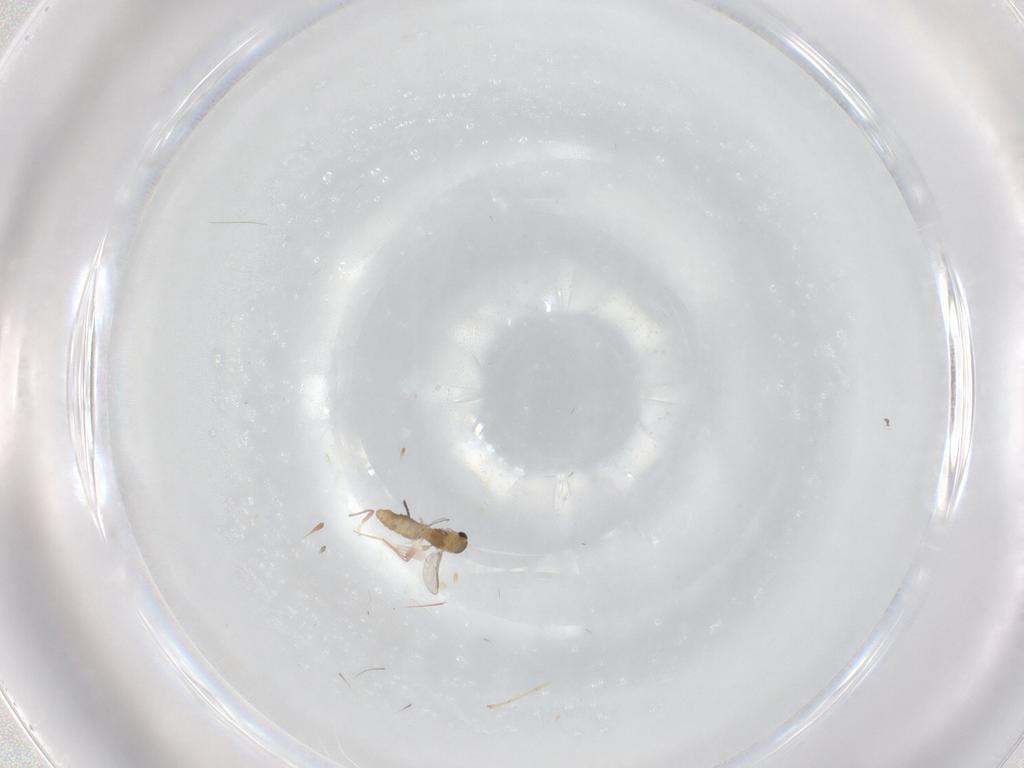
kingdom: Animalia
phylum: Arthropoda
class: Insecta
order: Diptera
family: Chironomidae
